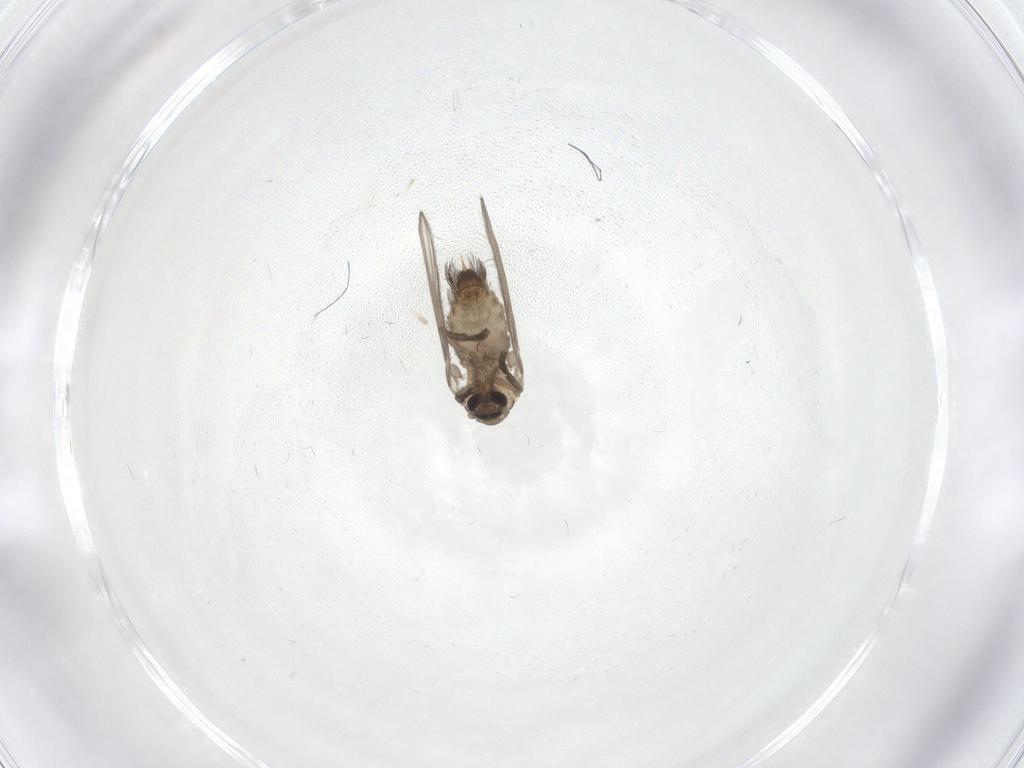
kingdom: Animalia
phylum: Arthropoda
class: Insecta
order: Diptera
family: Psychodidae
